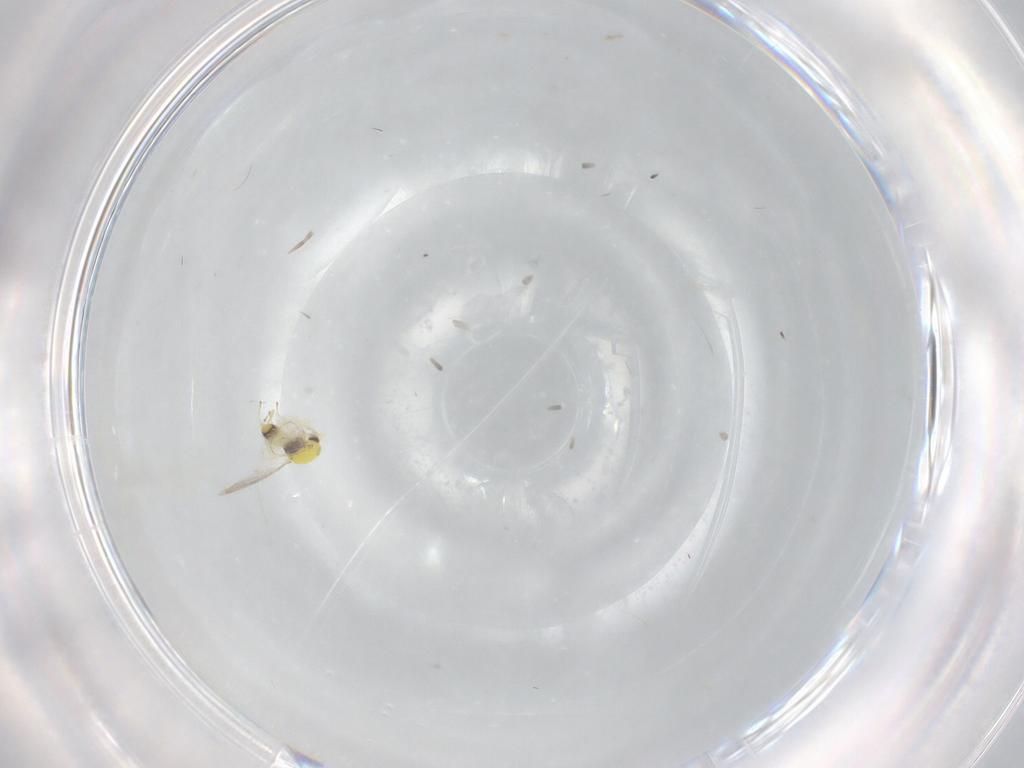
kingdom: Animalia
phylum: Arthropoda
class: Insecta
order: Hymenoptera
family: Eulophidae
